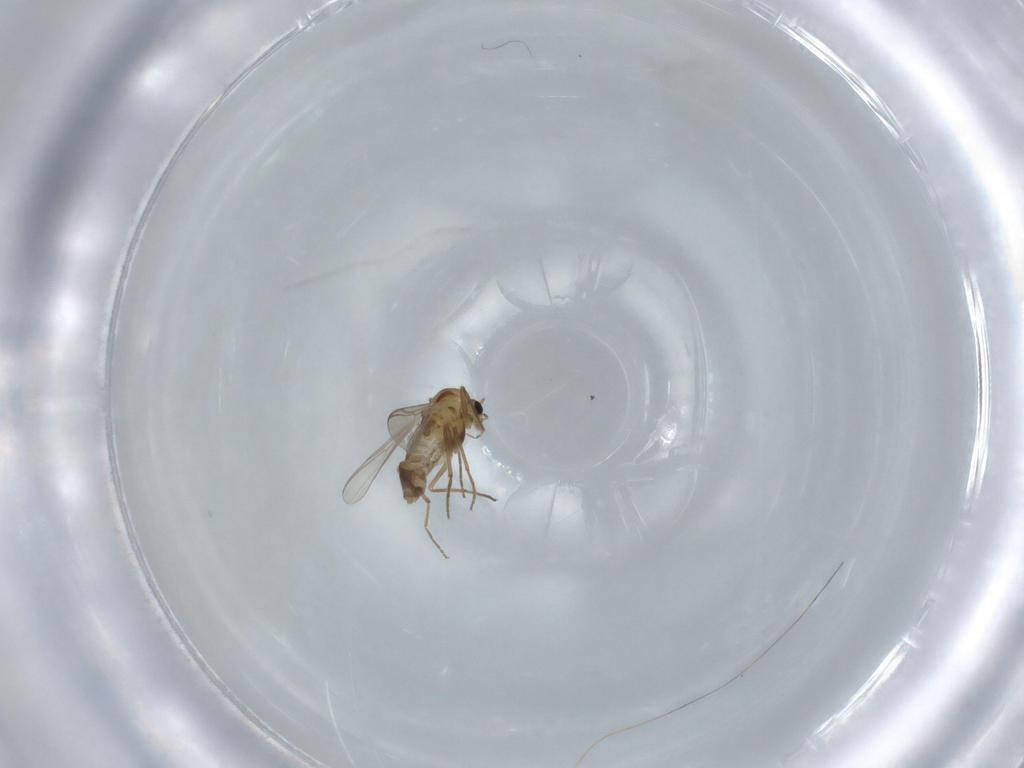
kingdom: Animalia
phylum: Arthropoda
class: Insecta
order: Diptera
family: Chironomidae
